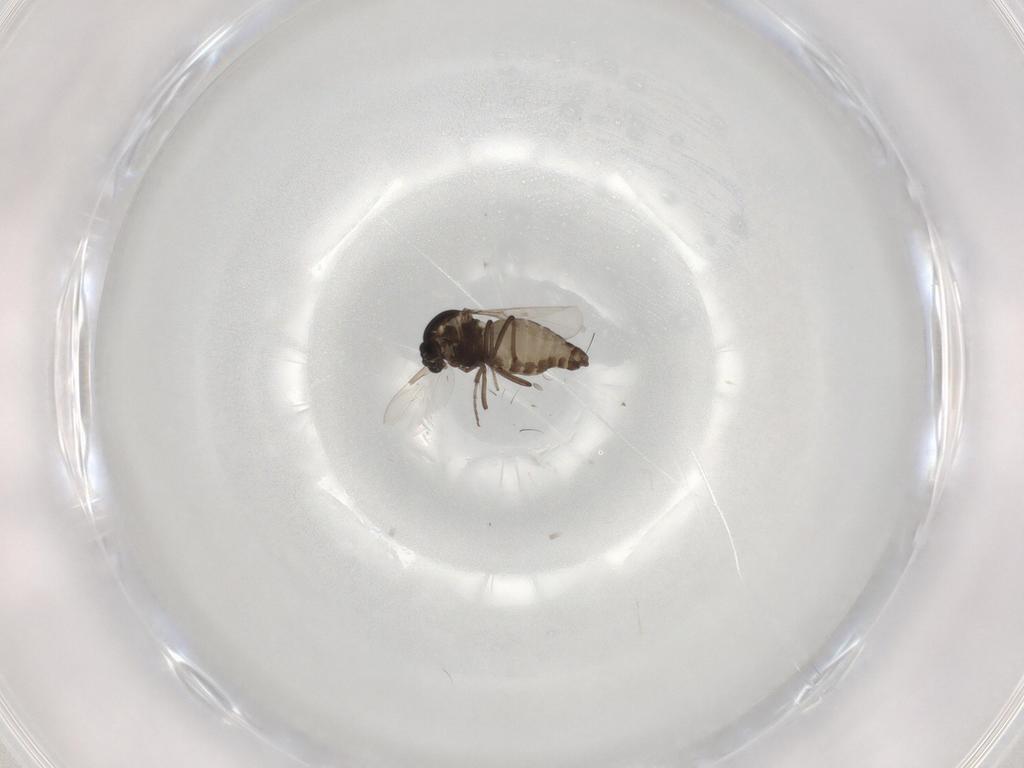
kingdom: Animalia
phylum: Arthropoda
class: Insecta
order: Diptera
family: Ceratopogonidae
